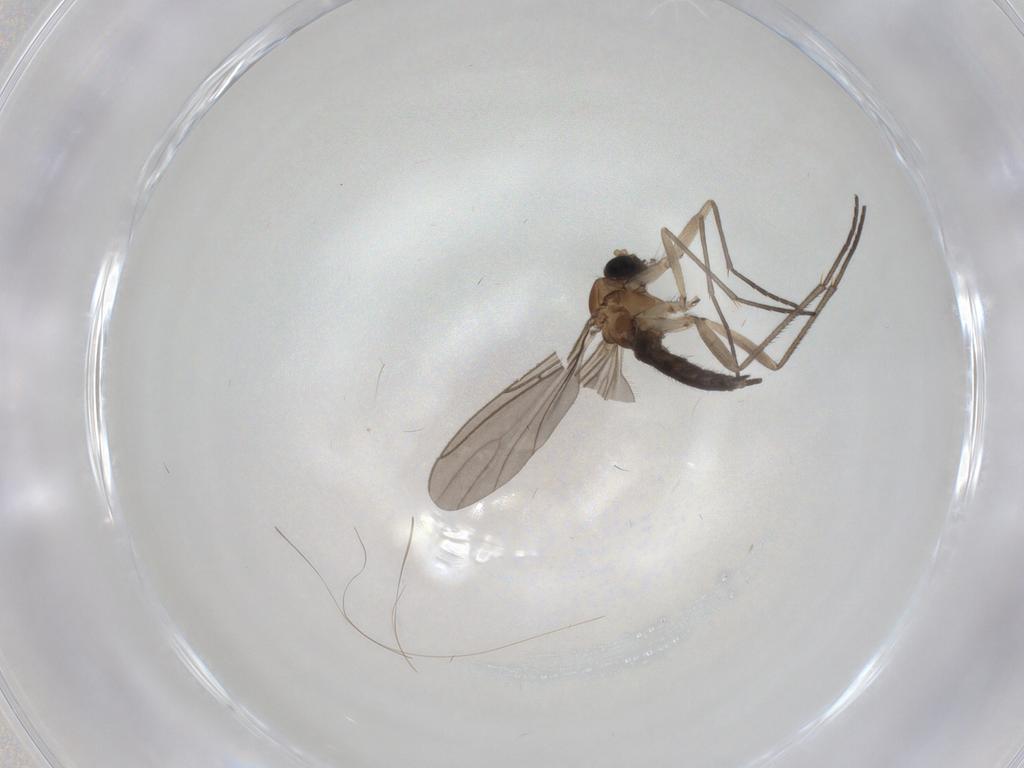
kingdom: Animalia
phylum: Arthropoda
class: Insecta
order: Diptera
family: Sciaridae
